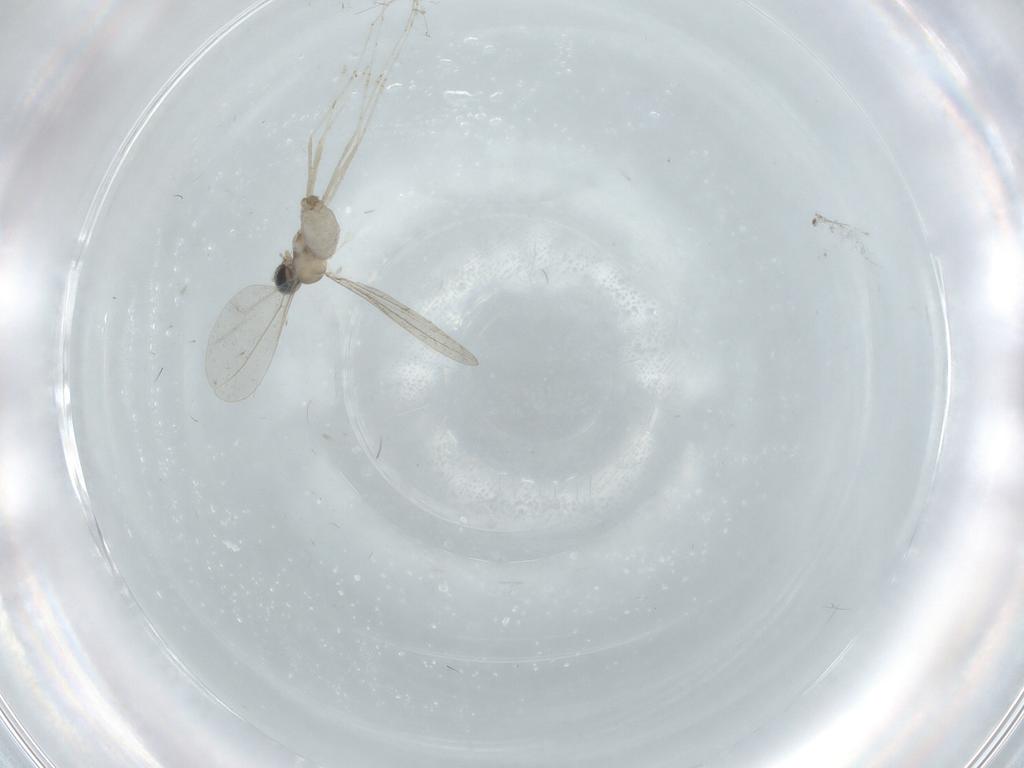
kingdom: Animalia
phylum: Arthropoda
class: Insecta
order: Diptera
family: Cecidomyiidae
